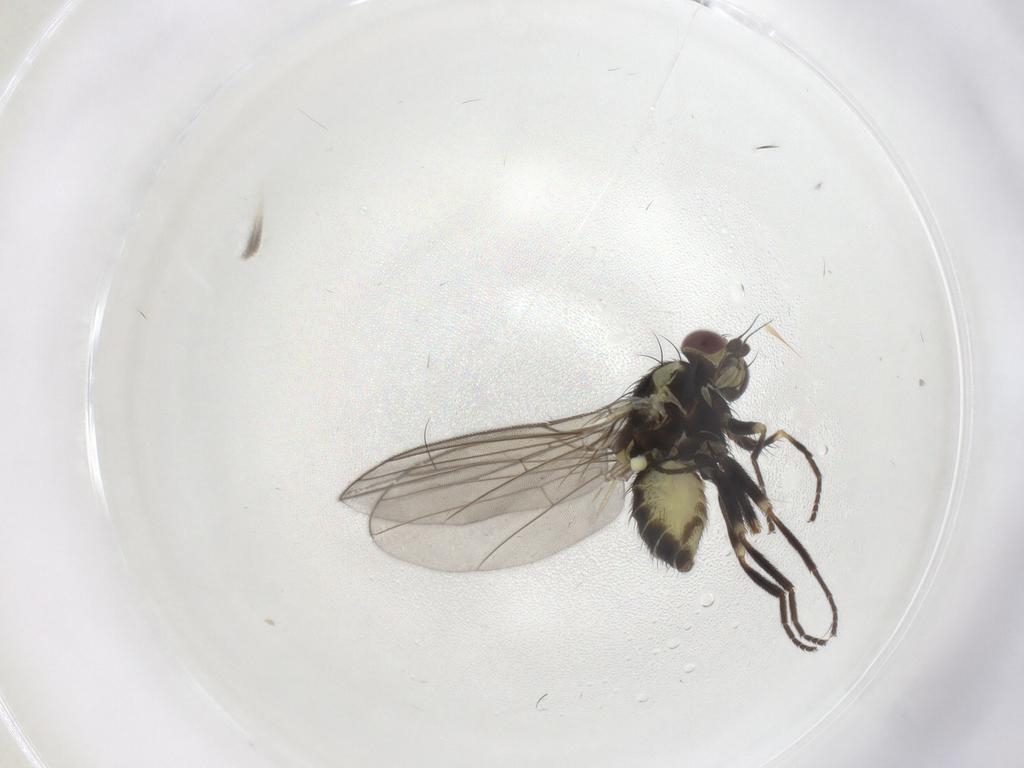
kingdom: Animalia
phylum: Arthropoda
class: Insecta
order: Diptera
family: Agromyzidae
